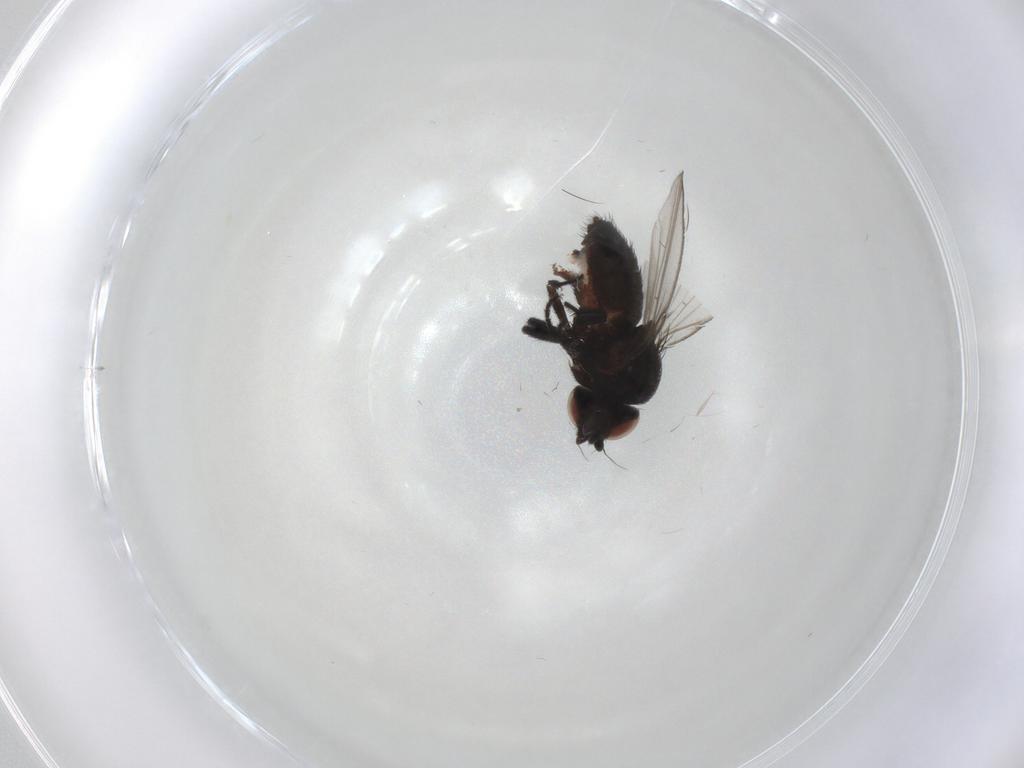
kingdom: Animalia
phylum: Arthropoda
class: Insecta
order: Diptera
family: Milichiidae
